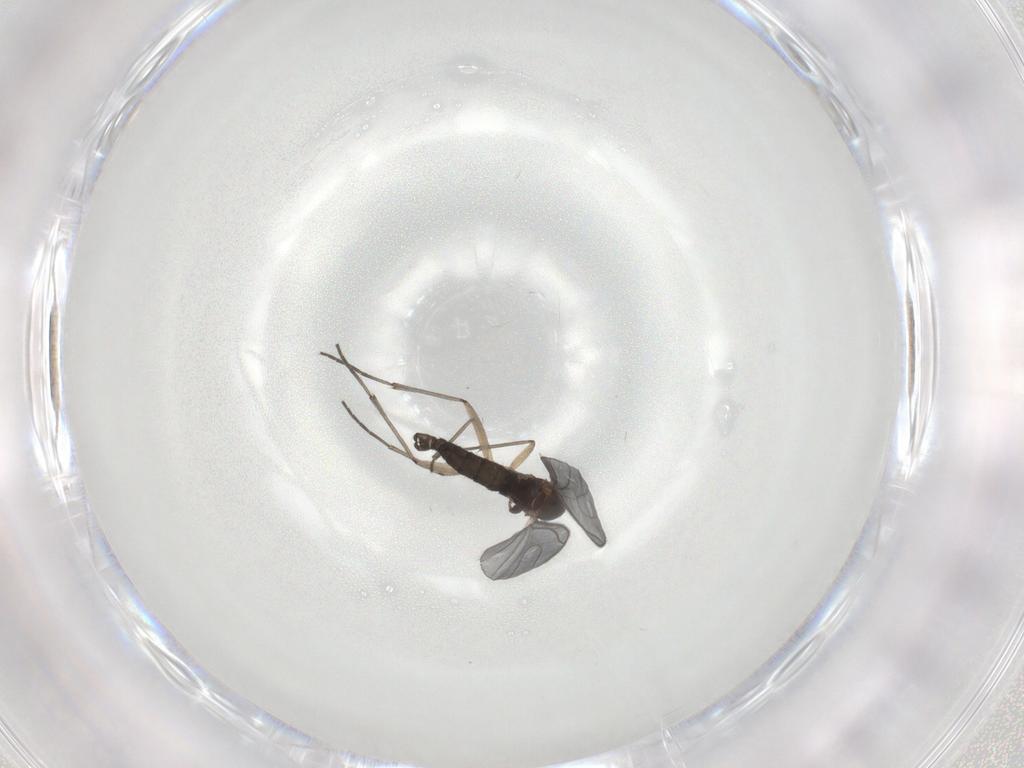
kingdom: Animalia
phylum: Arthropoda
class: Insecta
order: Diptera
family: Sciaridae
